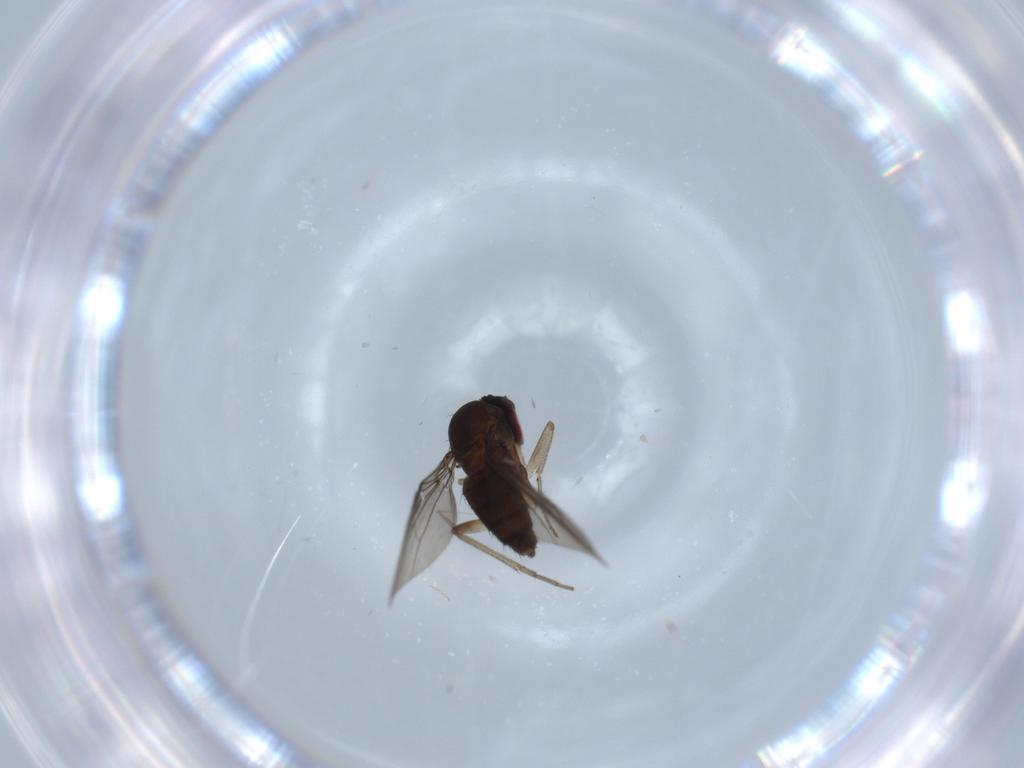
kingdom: Animalia
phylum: Arthropoda
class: Insecta
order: Diptera
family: Dolichopodidae
